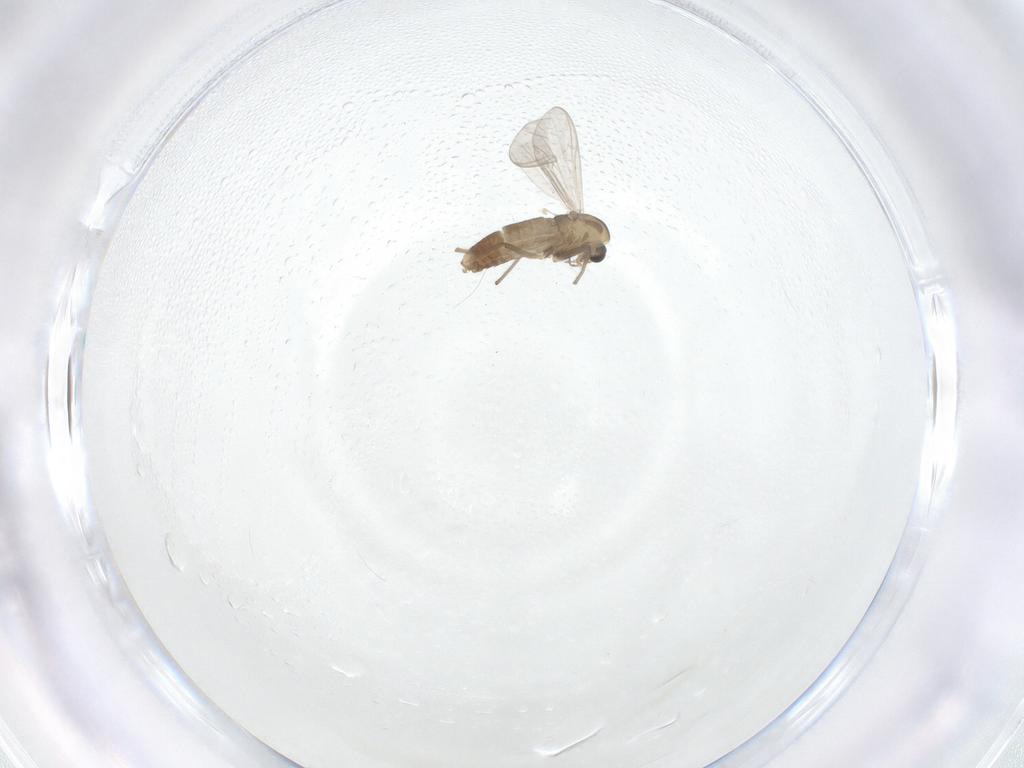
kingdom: Animalia
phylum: Arthropoda
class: Insecta
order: Diptera
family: Chironomidae
